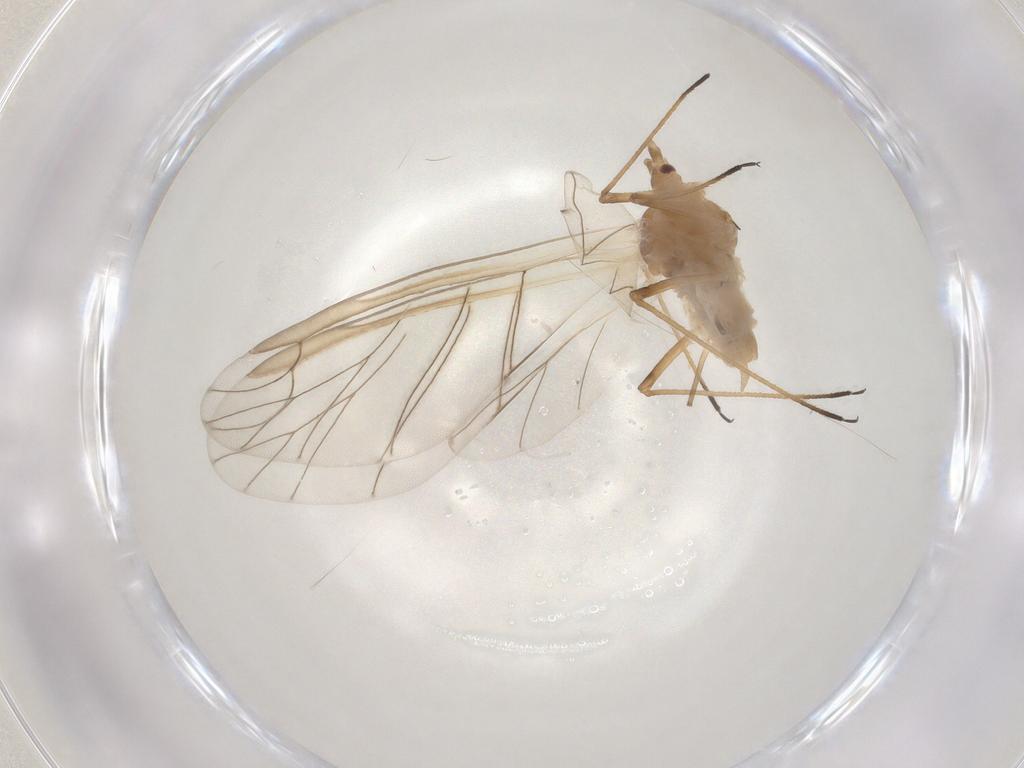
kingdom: Animalia
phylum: Arthropoda
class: Insecta
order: Hemiptera
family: Aphididae
